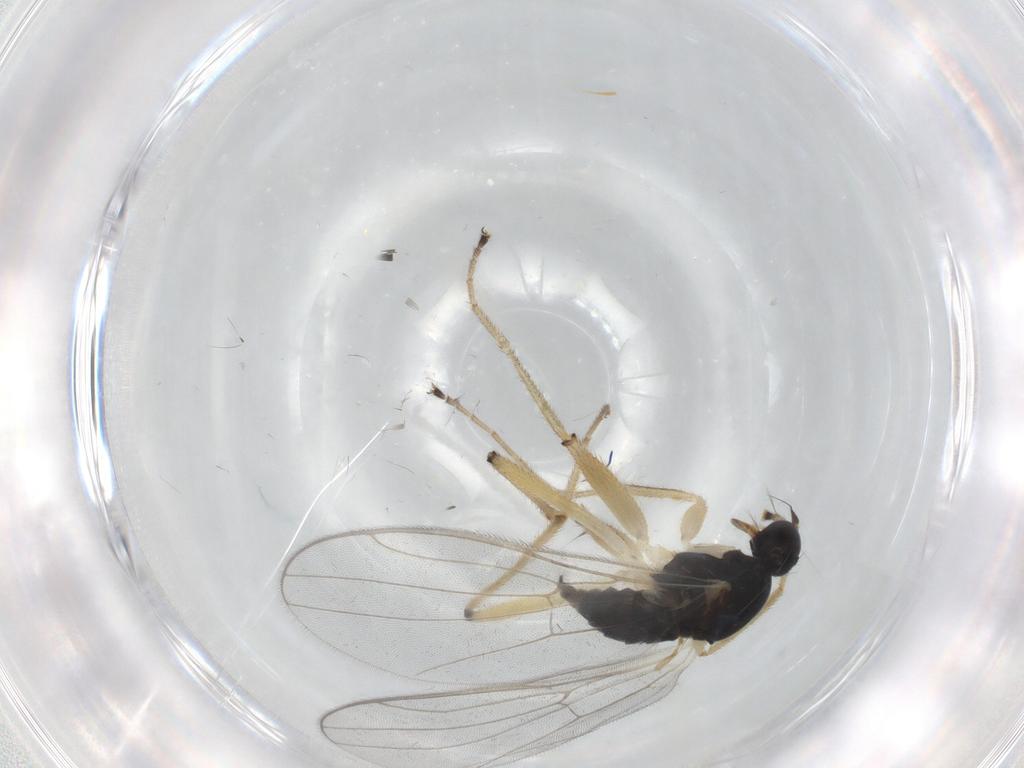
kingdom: Animalia
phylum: Arthropoda
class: Insecta
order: Diptera
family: Hybotidae
